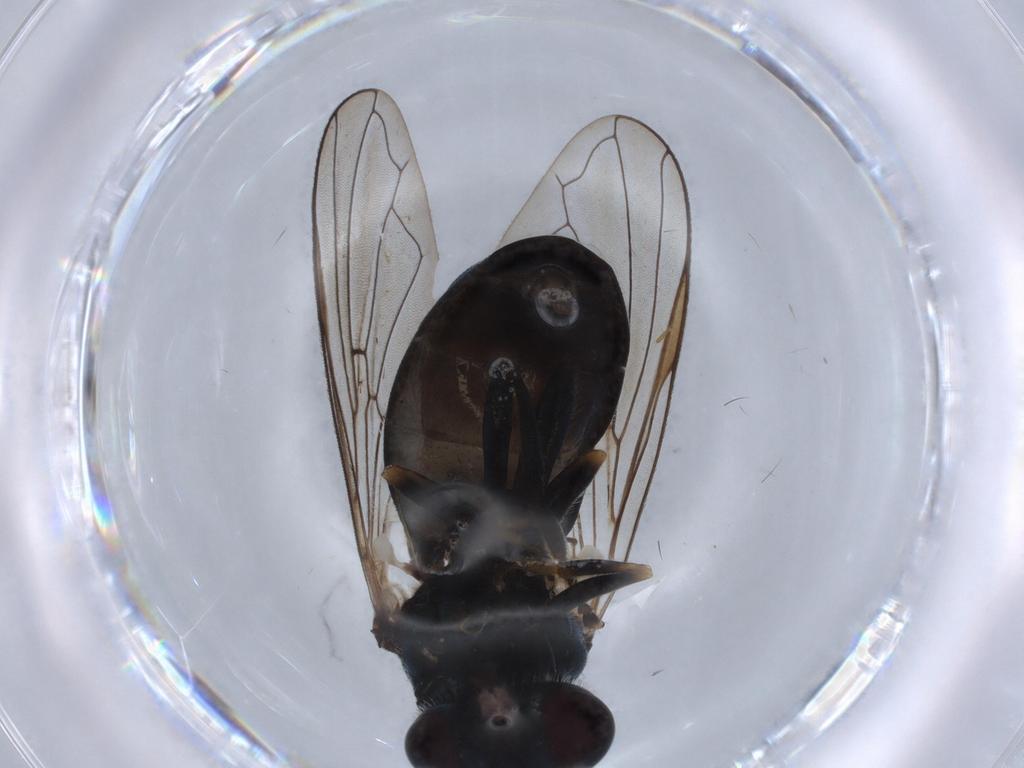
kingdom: Animalia
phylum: Arthropoda
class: Insecta
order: Diptera
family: Syrphidae
